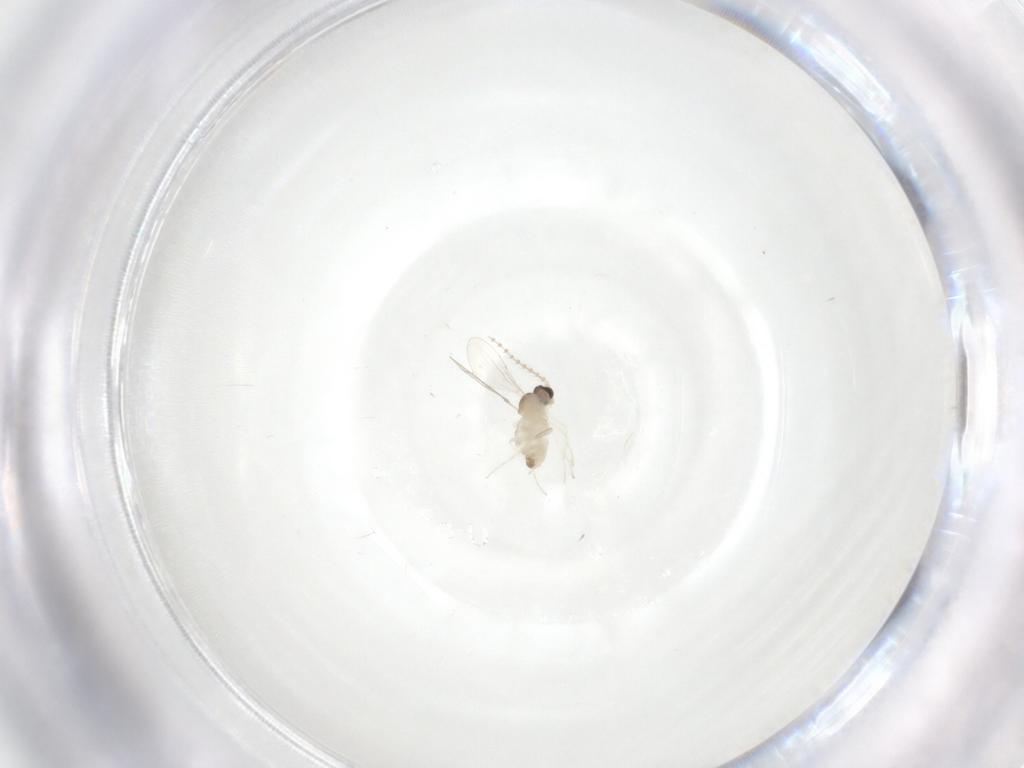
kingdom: Animalia
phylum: Arthropoda
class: Insecta
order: Diptera
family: Cecidomyiidae
